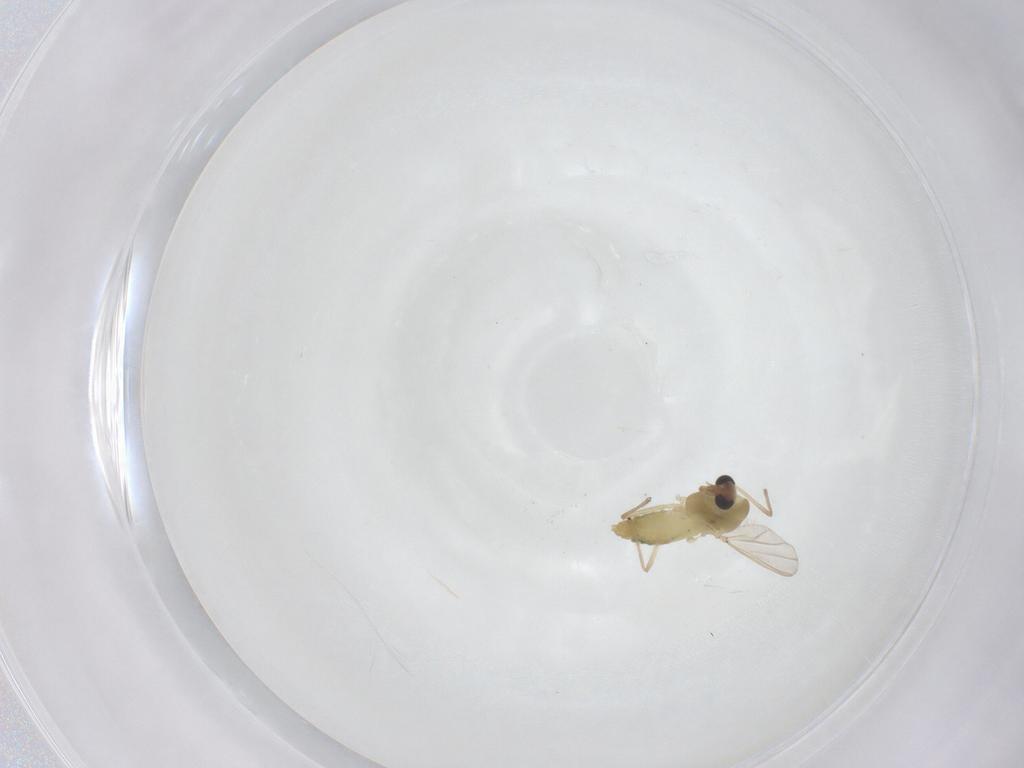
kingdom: Animalia
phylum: Arthropoda
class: Insecta
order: Diptera
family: Chironomidae
